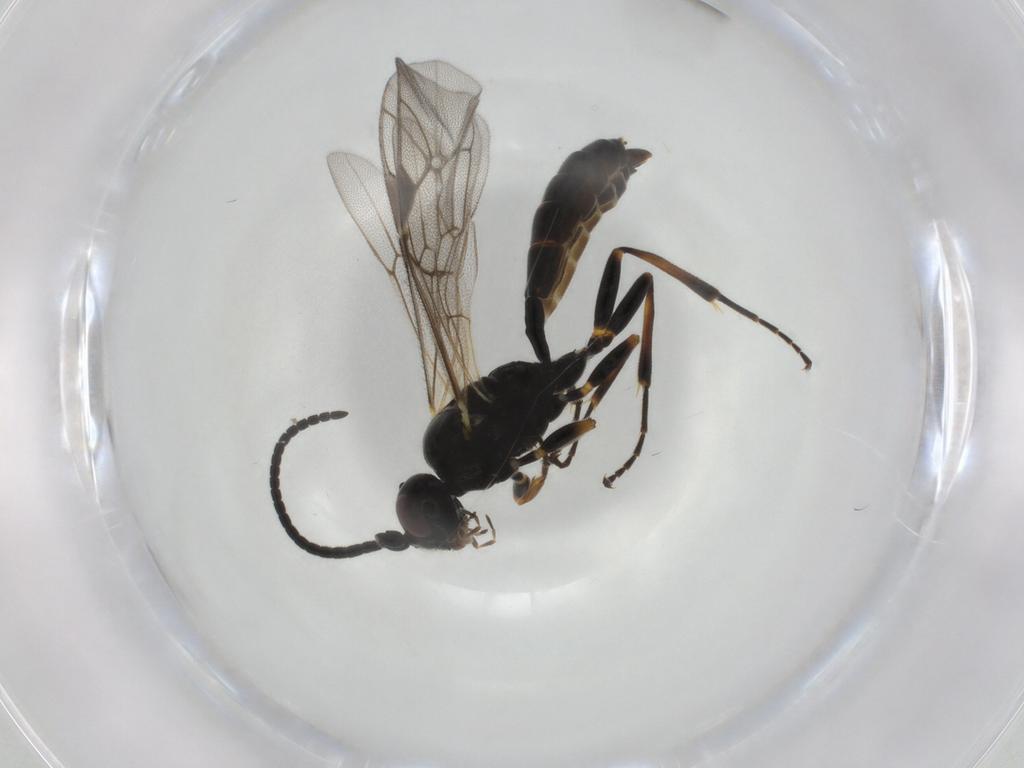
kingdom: Animalia
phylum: Arthropoda
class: Insecta
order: Hymenoptera
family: Ichneumonidae
